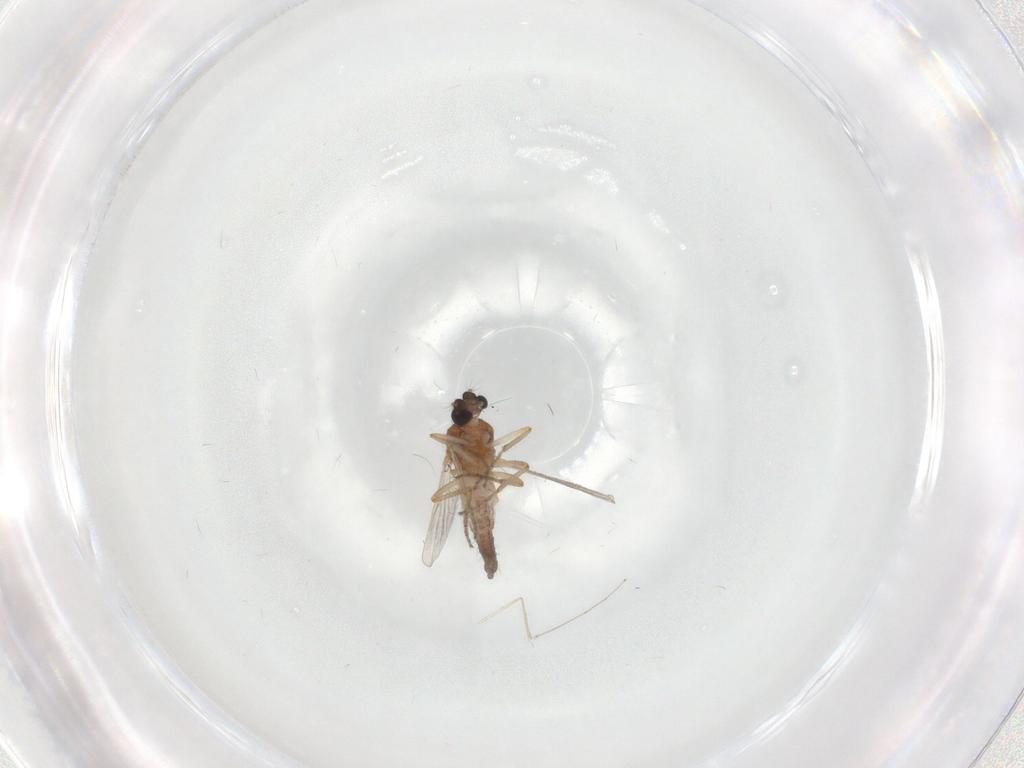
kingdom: Animalia
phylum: Arthropoda
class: Insecta
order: Diptera
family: Ceratopogonidae
